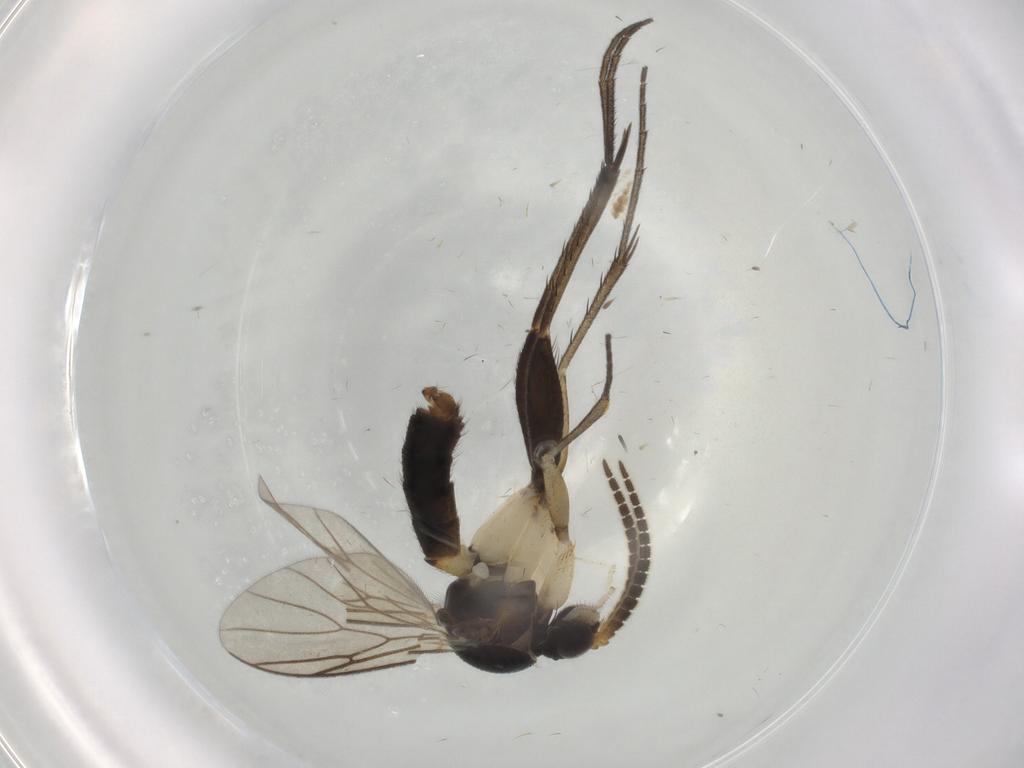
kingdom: Animalia
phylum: Arthropoda
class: Insecta
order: Diptera
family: Mycetophilidae
